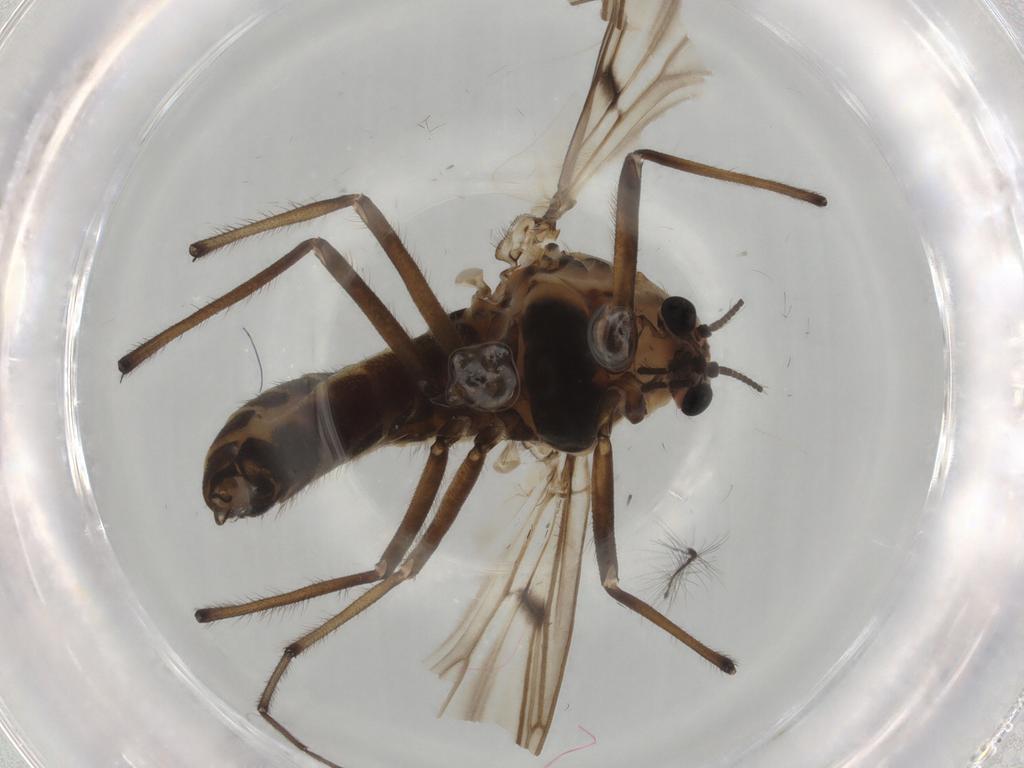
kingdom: Animalia
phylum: Arthropoda
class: Insecta
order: Diptera
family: Chironomidae
